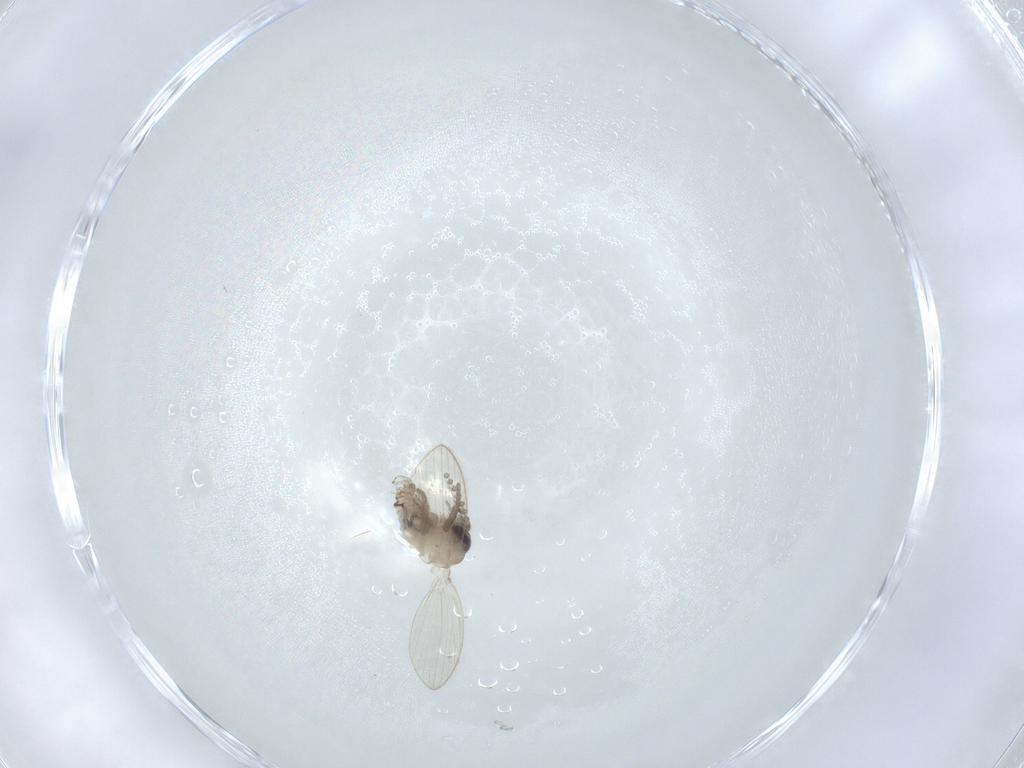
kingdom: Animalia
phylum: Arthropoda
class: Insecta
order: Diptera
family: Psychodidae
